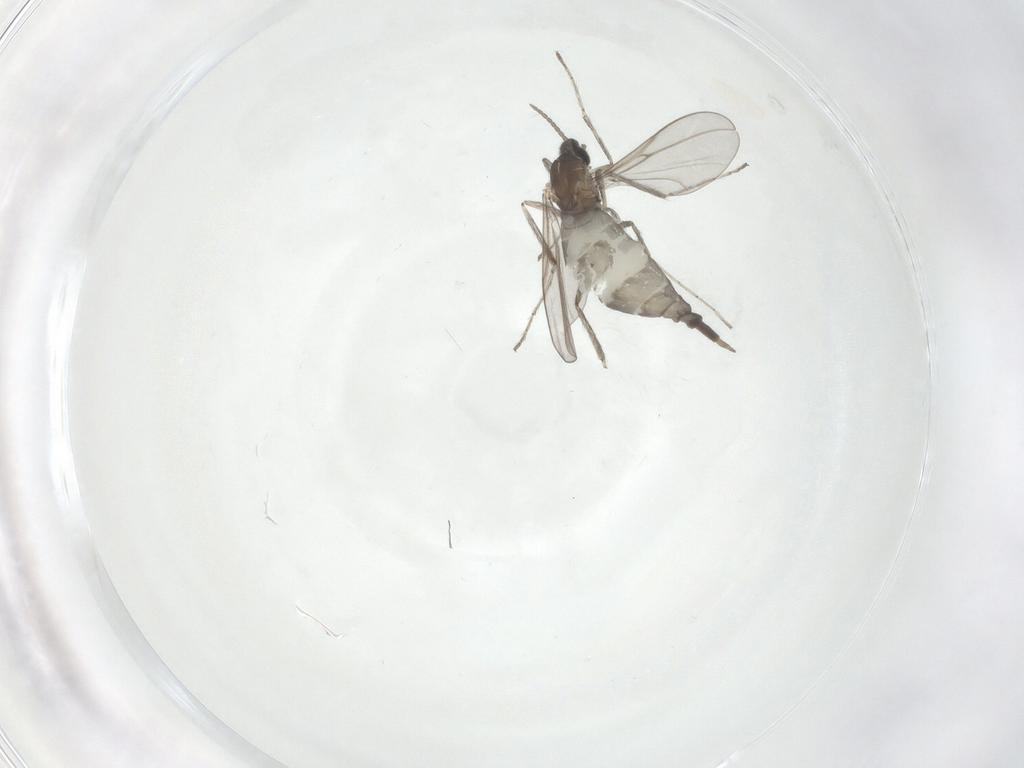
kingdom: Animalia
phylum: Arthropoda
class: Insecta
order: Diptera
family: Cecidomyiidae
